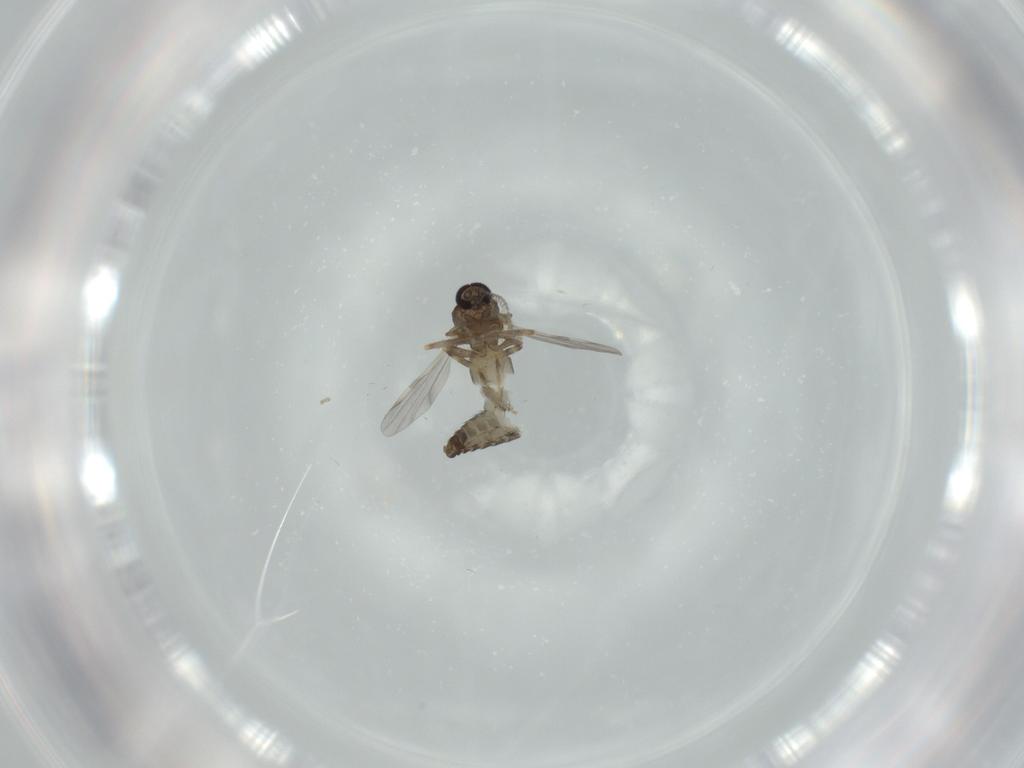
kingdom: Animalia
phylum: Arthropoda
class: Insecta
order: Diptera
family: Ceratopogonidae
